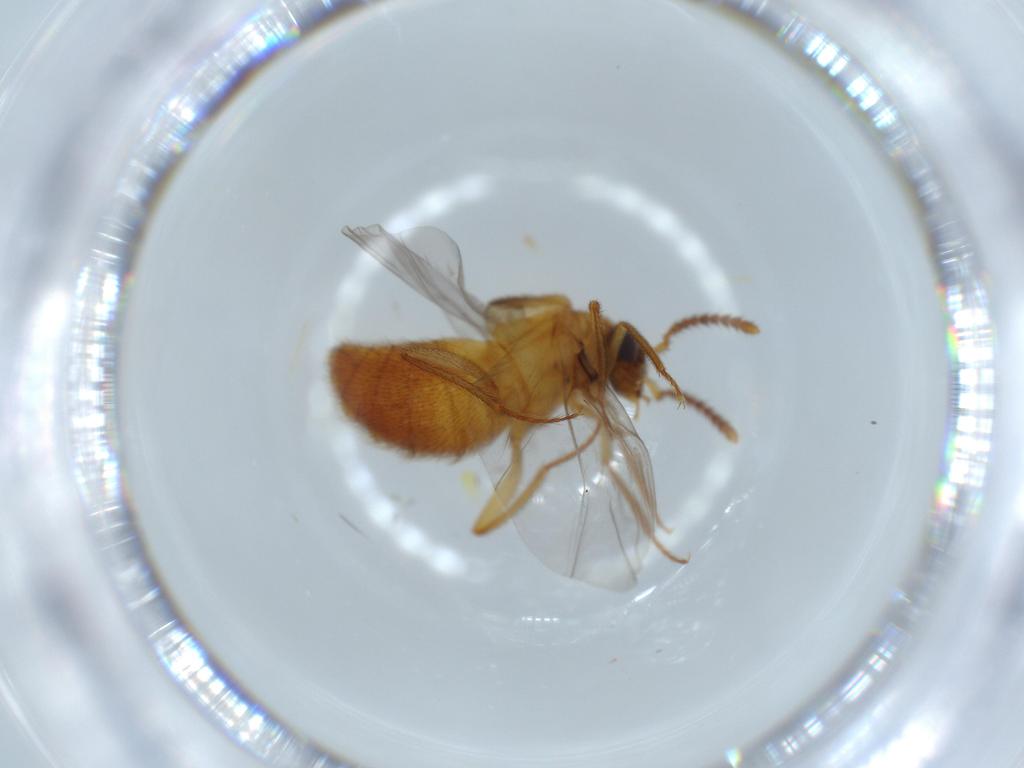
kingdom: Animalia
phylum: Arthropoda
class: Insecta
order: Coleoptera
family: Staphylinidae
